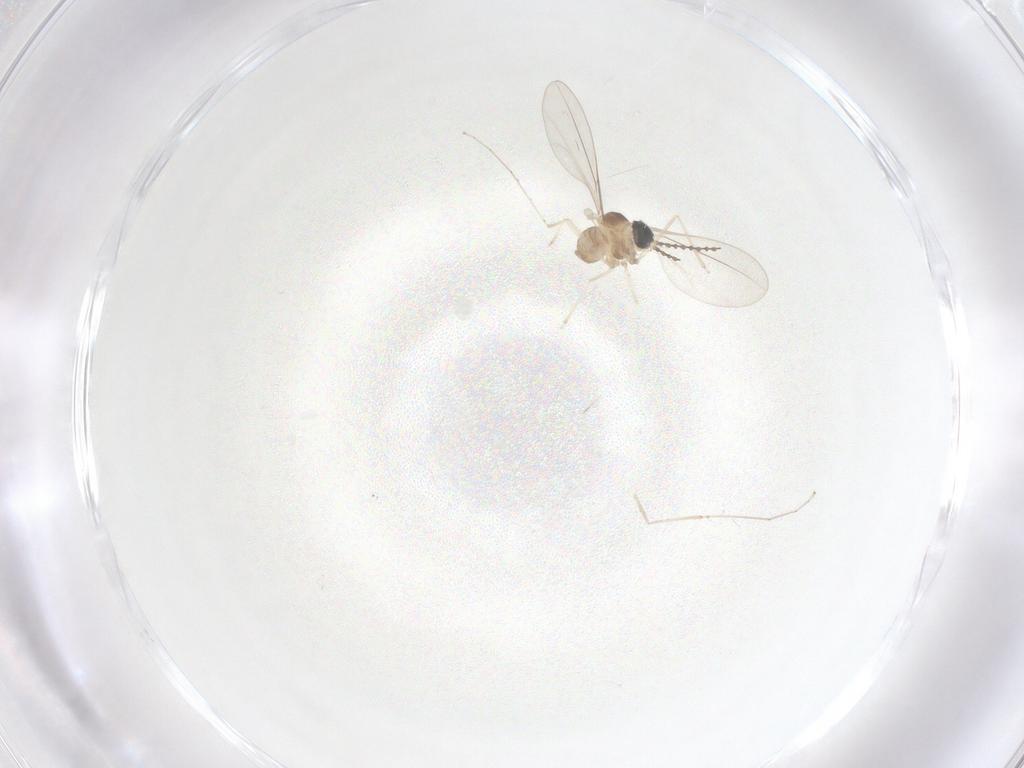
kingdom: Animalia
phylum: Arthropoda
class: Insecta
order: Diptera
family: Cecidomyiidae
